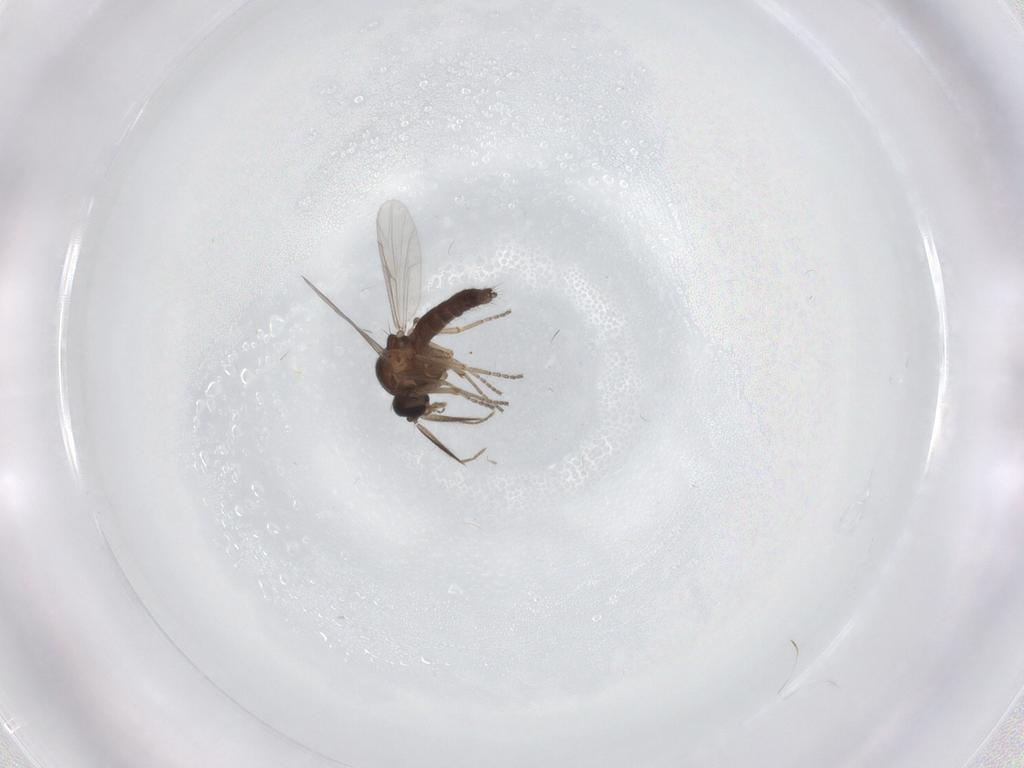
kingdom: Animalia
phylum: Arthropoda
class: Insecta
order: Diptera
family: Ceratopogonidae
